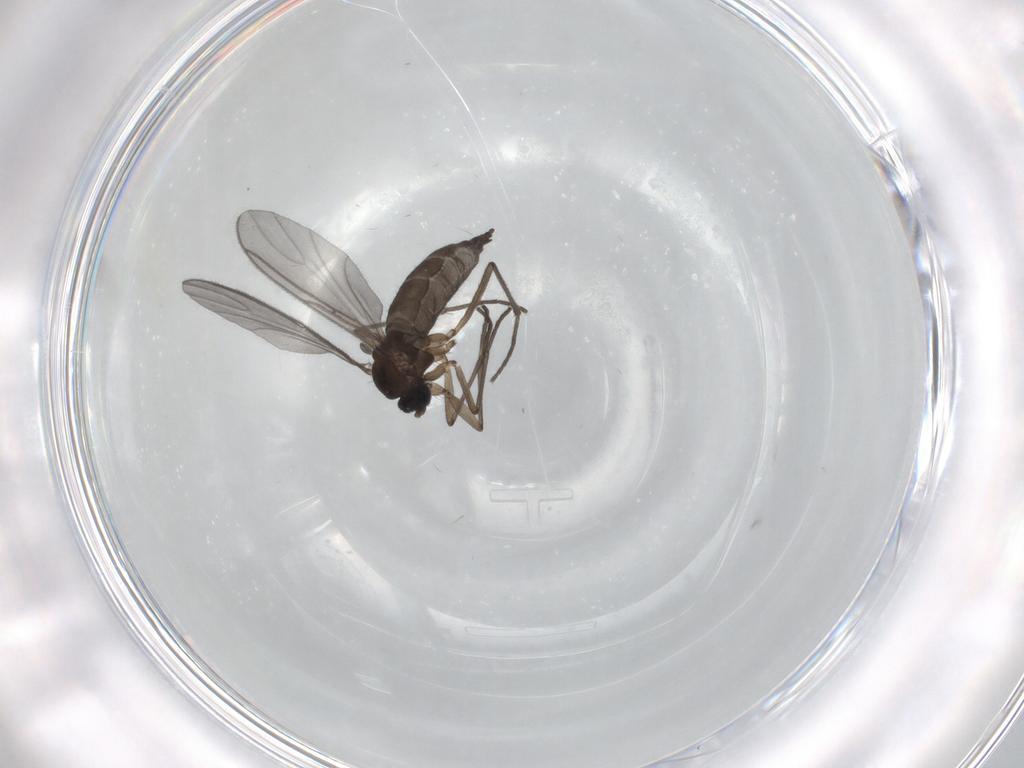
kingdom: Animalia
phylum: Arthropoda
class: Insecta
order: Diptera
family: Sciaridae
